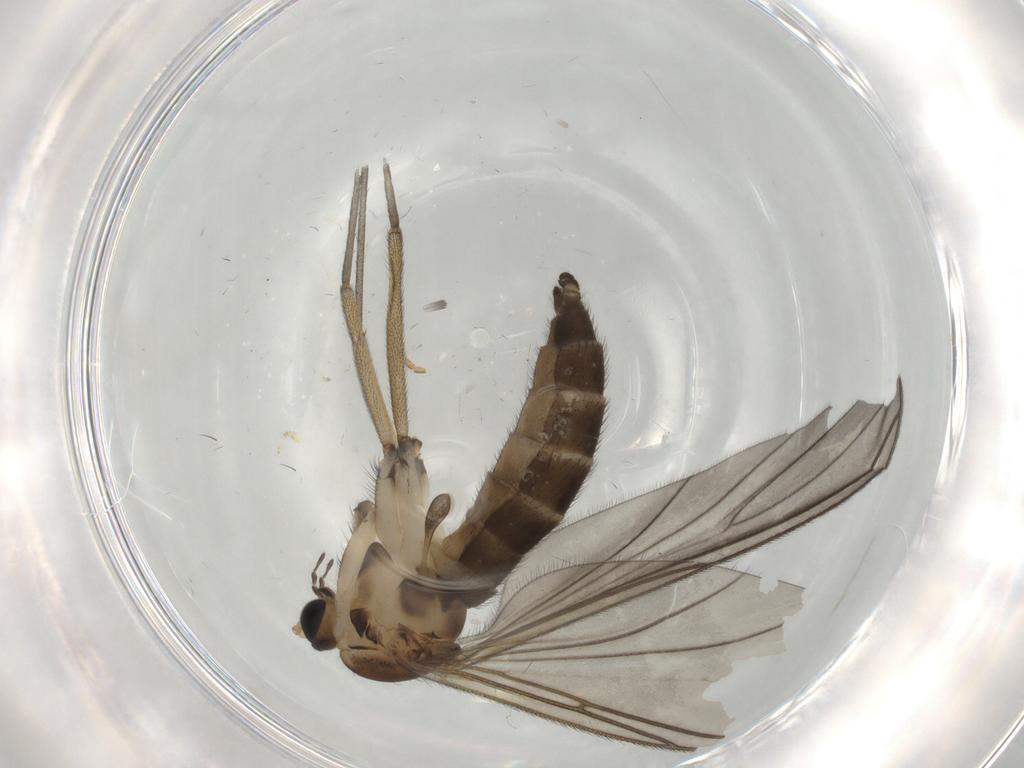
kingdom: Animalia
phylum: Arthropoda
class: Insecta
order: Diptera
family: Sciaridae
